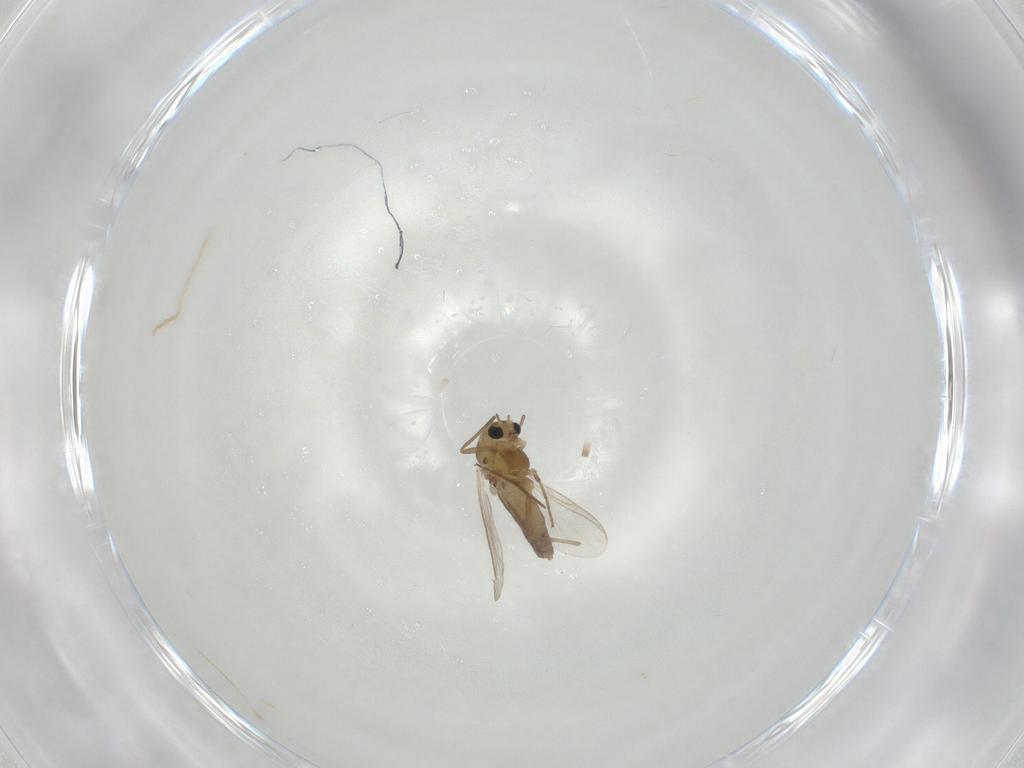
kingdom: Animalia
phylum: Arthropoda
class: Insecta
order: Diptera
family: Chironomidae
